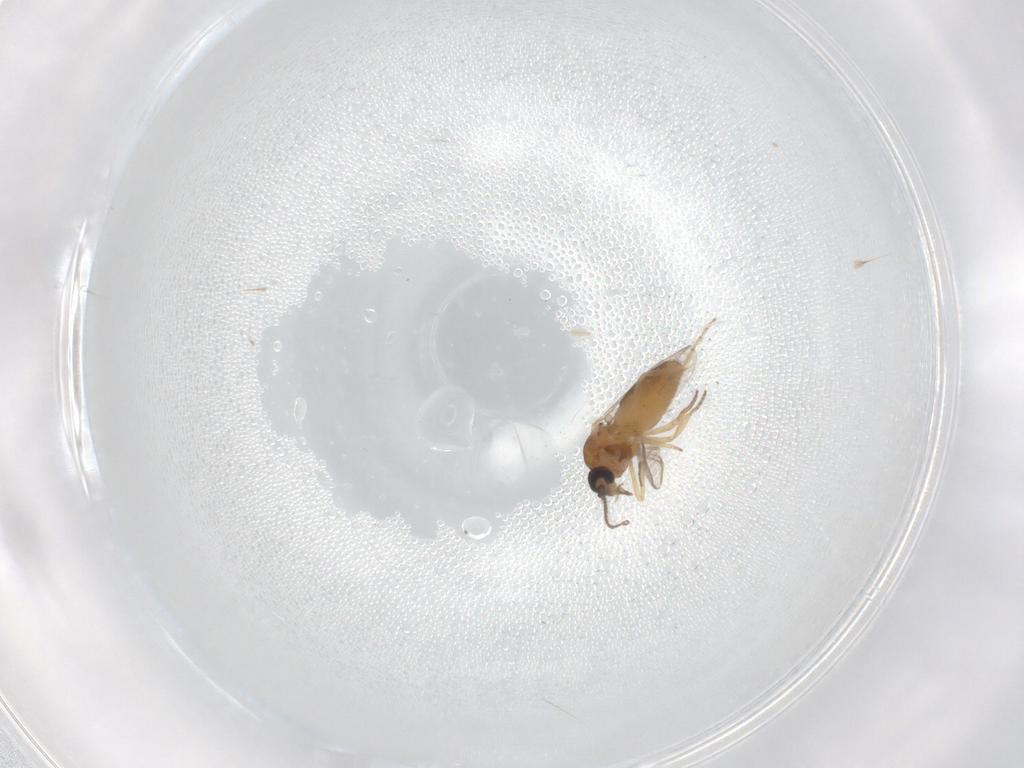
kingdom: Animalia
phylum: Arthropoda
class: Insecta
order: Diptera
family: Ceratopogonidae
